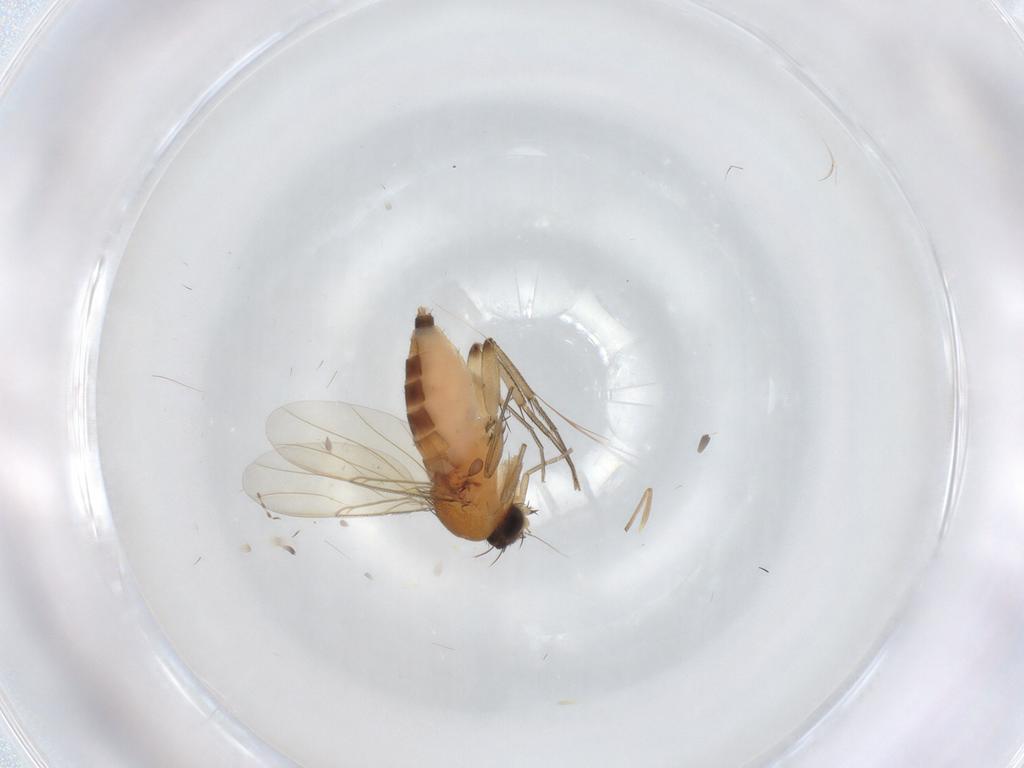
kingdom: Animalia
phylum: Arthropoda
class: Insecta
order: Diptera
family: Cecidomyiidae
